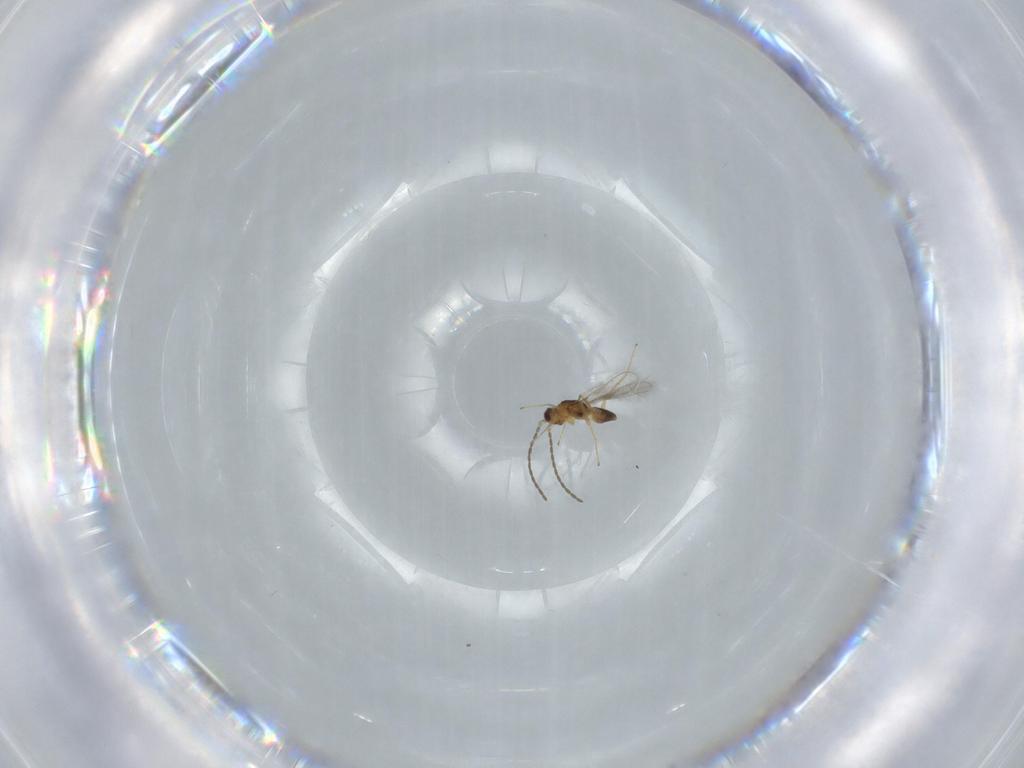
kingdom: Animalia
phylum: Arthropoda
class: Insecta
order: Hymenoptera
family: Mymaridae
